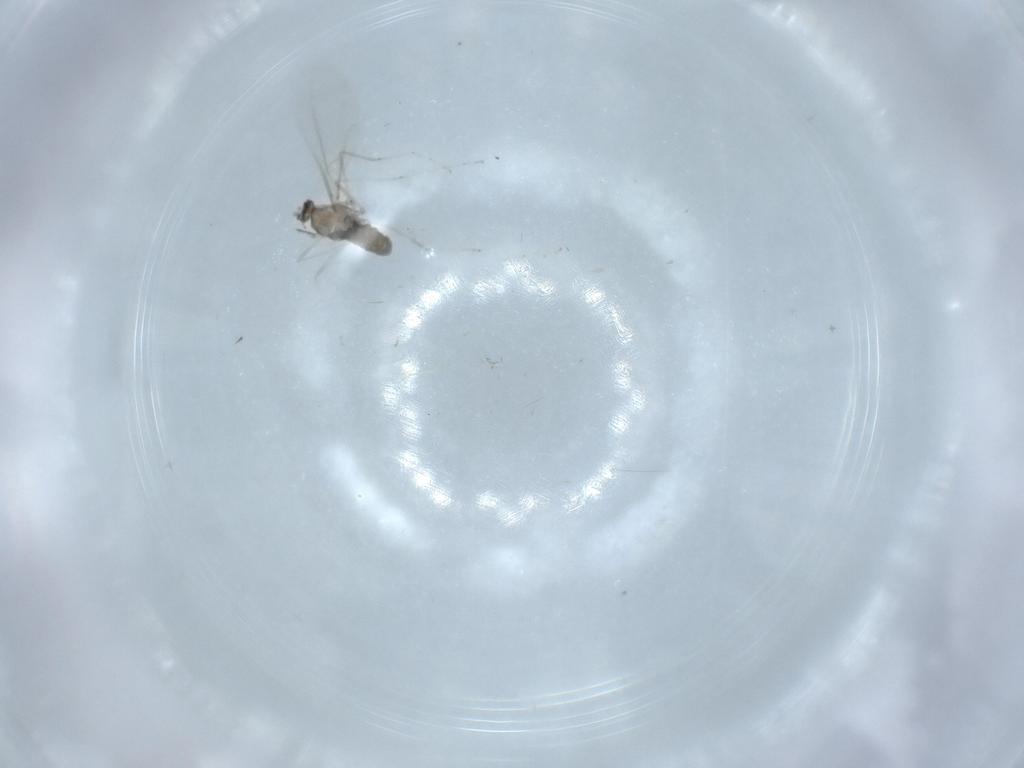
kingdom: Animalia
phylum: Arthropoda
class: Insecta
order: Diptera
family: Cecidomyiidae
